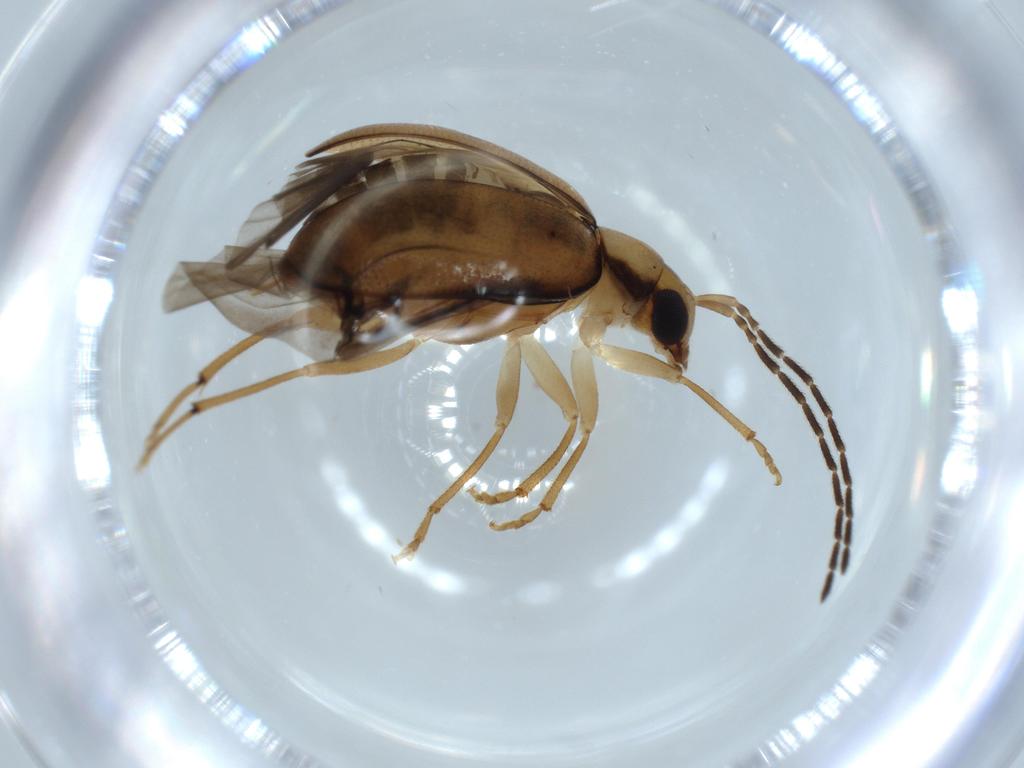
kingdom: Animalia
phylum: Arthropoda
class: Insecta
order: Coleoptera
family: Chrysomelidae
